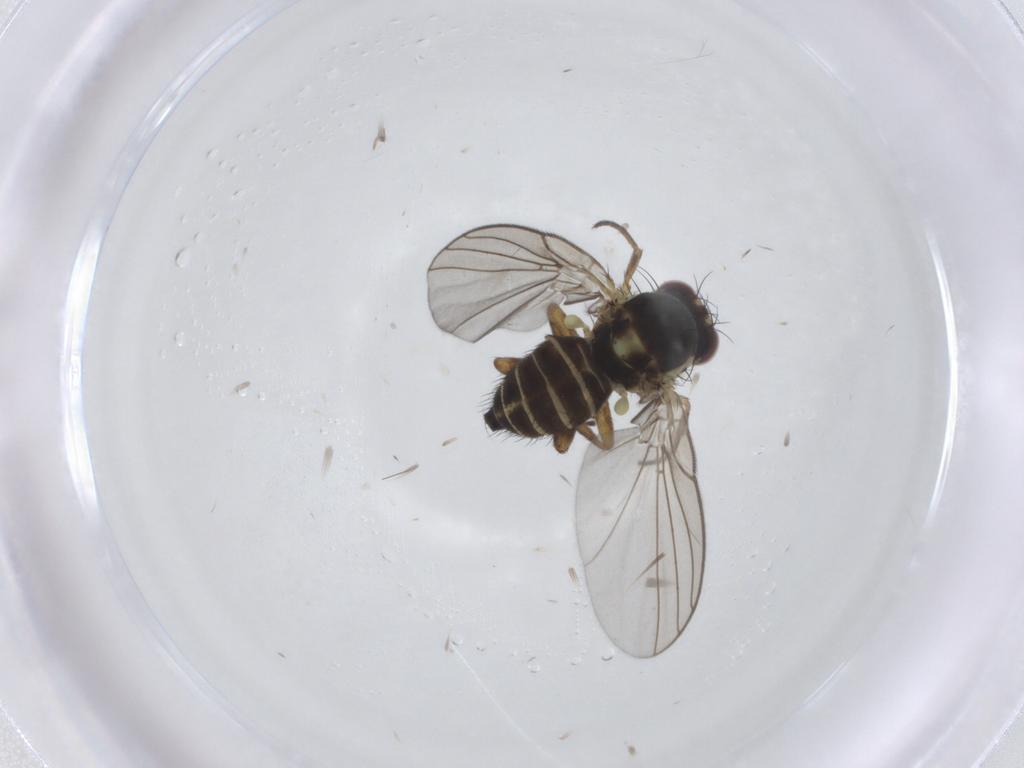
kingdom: Animalia
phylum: Arthropoda
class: Insecta
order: Diptera
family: Agromyzidae
